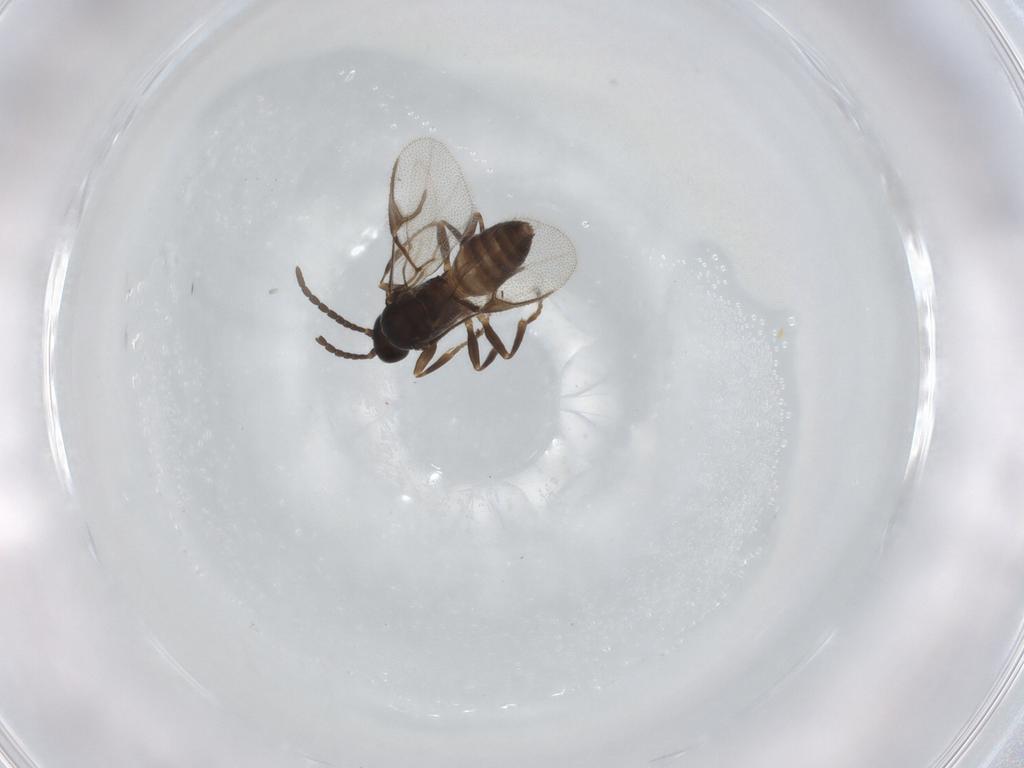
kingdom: Animalia
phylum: Arthropoda
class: Insecta
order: Hymenoptera
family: Braconidae
